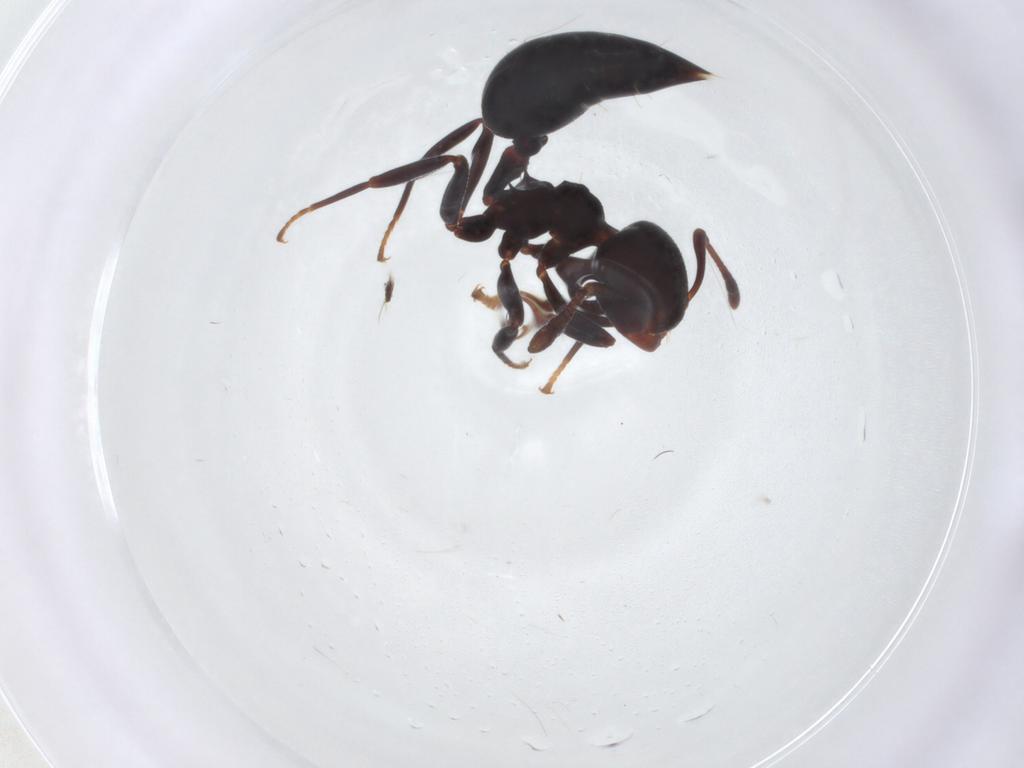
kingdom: Animalia
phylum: Arthropoda
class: Insecta
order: Hymenoptera
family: Formicidae
